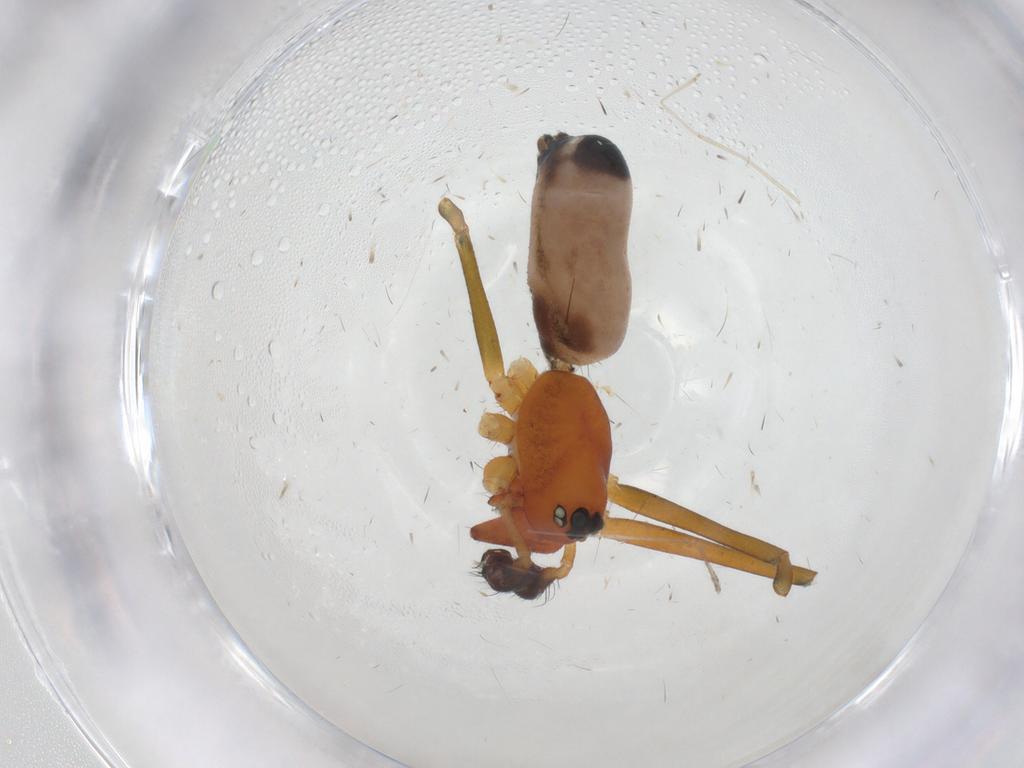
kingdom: Animalia
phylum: Arthropoda
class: Arachnida
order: Araneae
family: Linyphiidae
